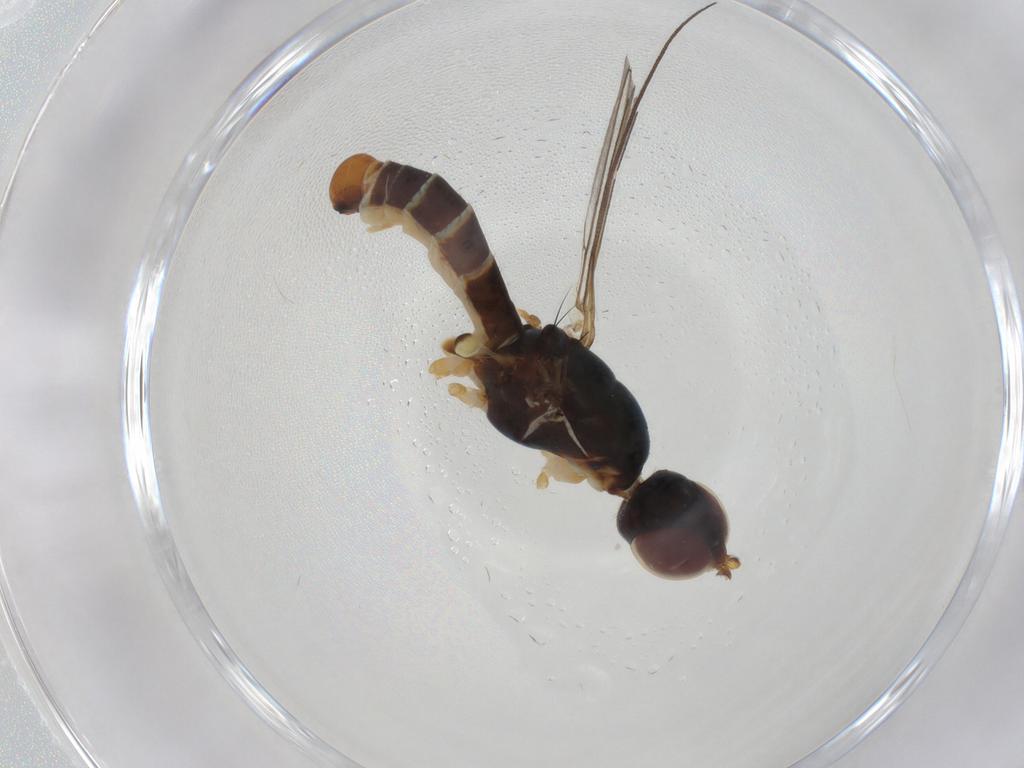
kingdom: Animalia
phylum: Arthropoda
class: Insecta
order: Diptera
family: Micropezidae
